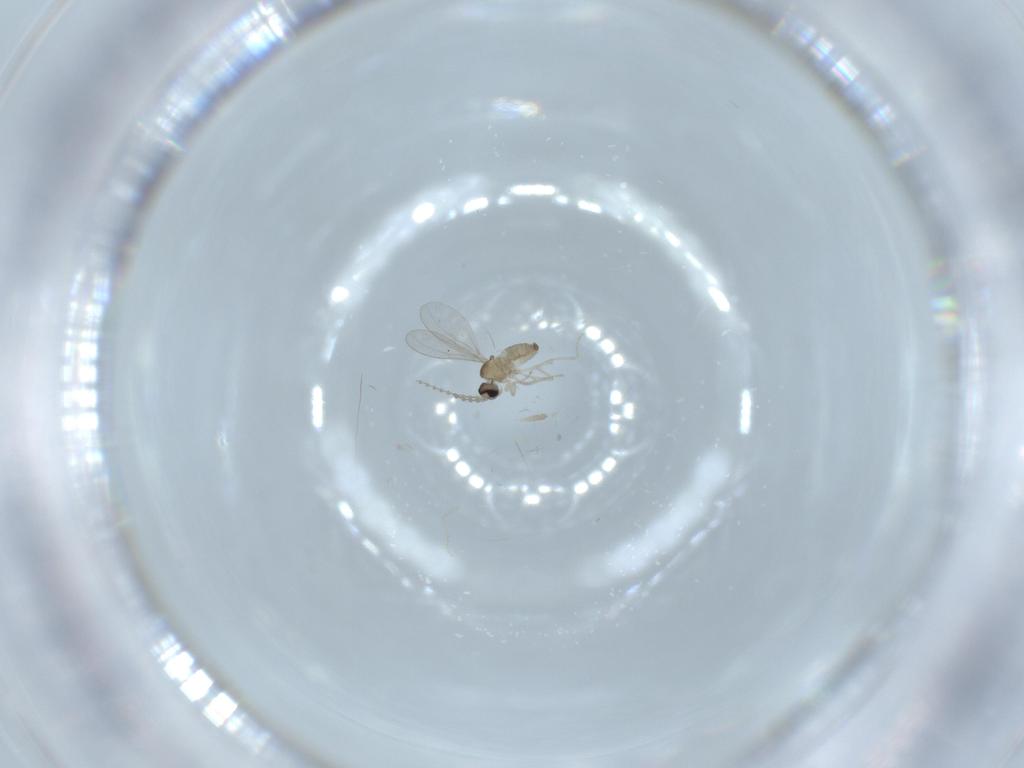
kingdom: Animalia
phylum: Arthropoda
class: Insecta
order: Diptera
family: Cecidomyiidae
